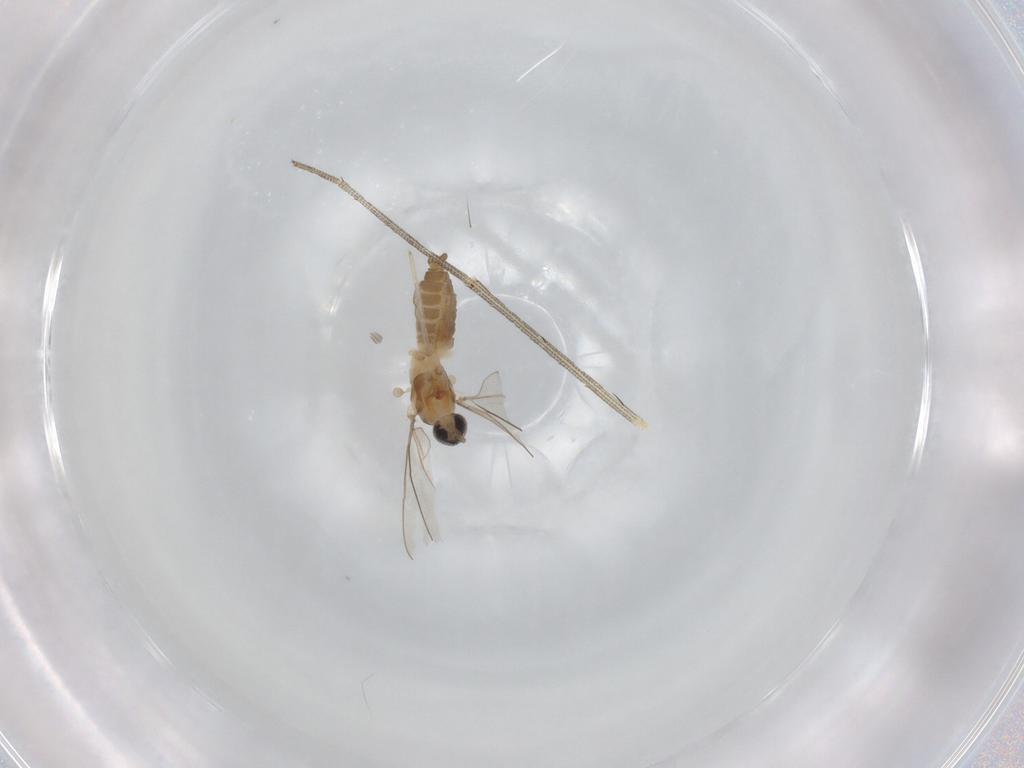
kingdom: Animalia
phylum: Arthropoda
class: Insecta
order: Diptera
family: Cecidomyiidae
